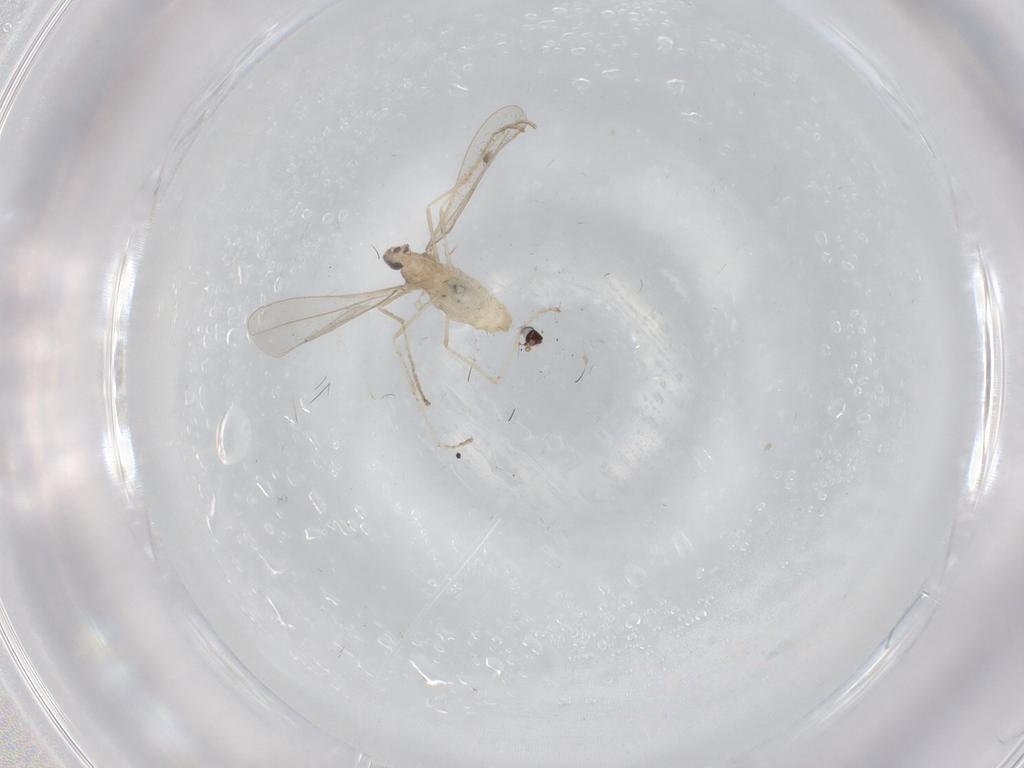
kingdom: Animalia
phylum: Arthropoda
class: Insecta
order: Diptera
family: Cecidomyiidae
